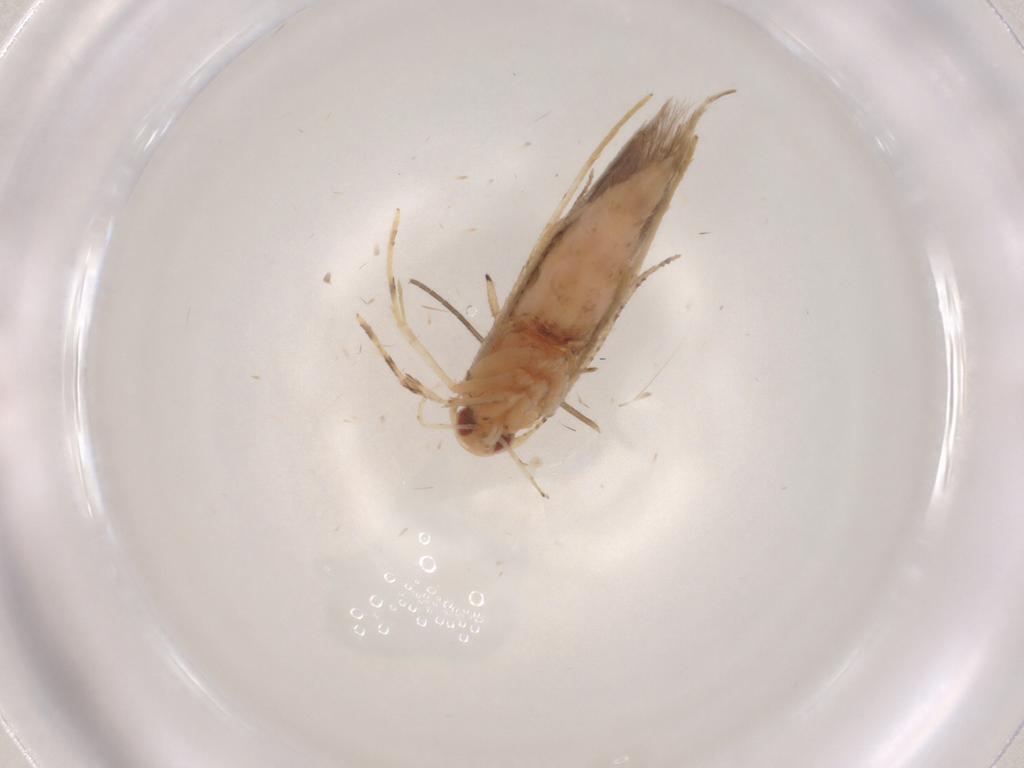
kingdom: Animalia
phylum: Arthropoda
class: Insecta
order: Lepidoptera
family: Cosmopterigidae
